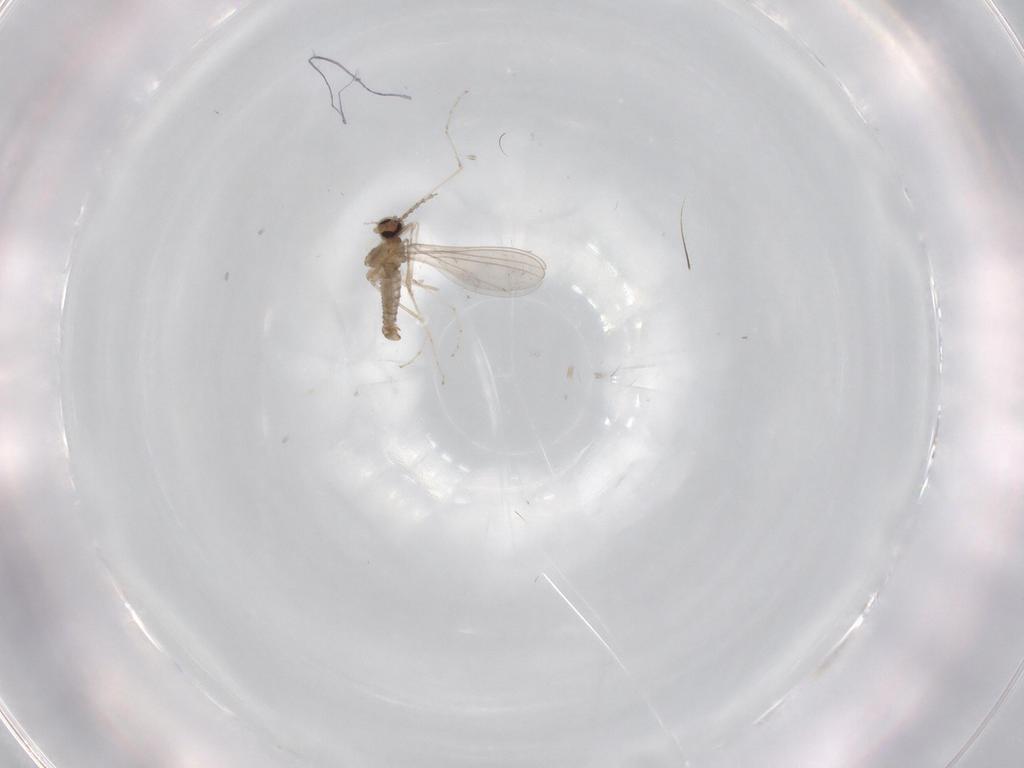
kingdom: Animalia
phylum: Arthropoda
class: Insecta
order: Diptera
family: Cecidomyiidae
